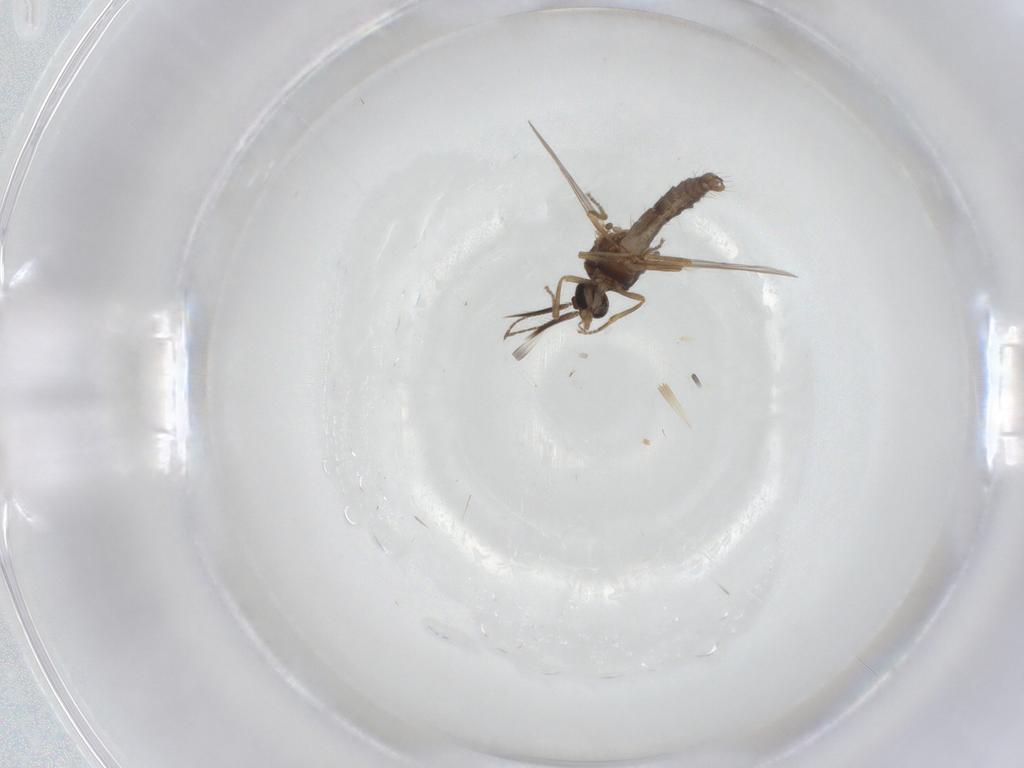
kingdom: Animalia
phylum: Arthropoda
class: Insecta
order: Diptera
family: Ceratopogonidae
